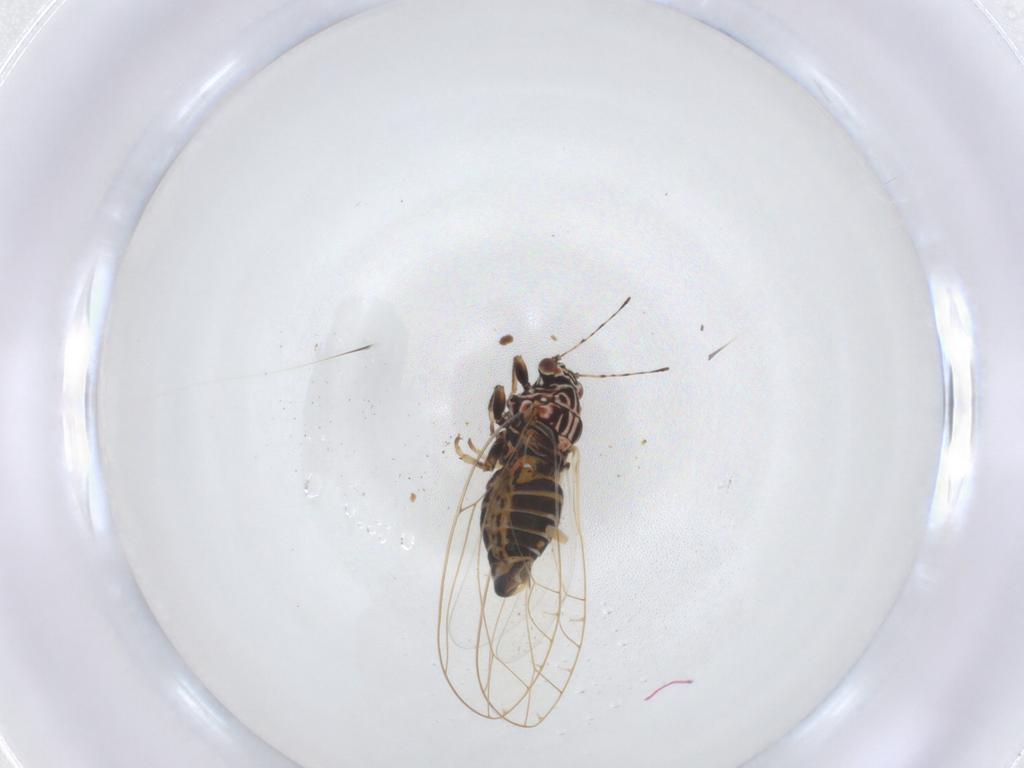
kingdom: Animalia
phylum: Arthropoda
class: Insecta
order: Hemiptera
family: Triozidae
